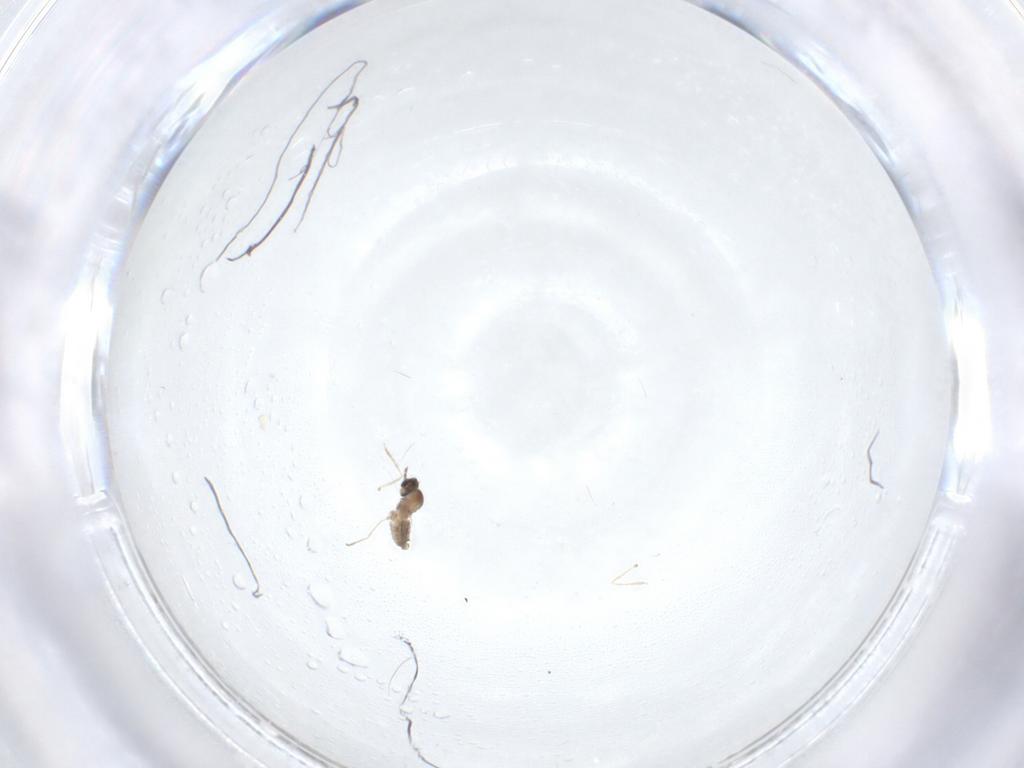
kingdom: Animalia
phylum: Arthropoda
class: Insecta
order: Diptera
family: Cecidomyiidae
